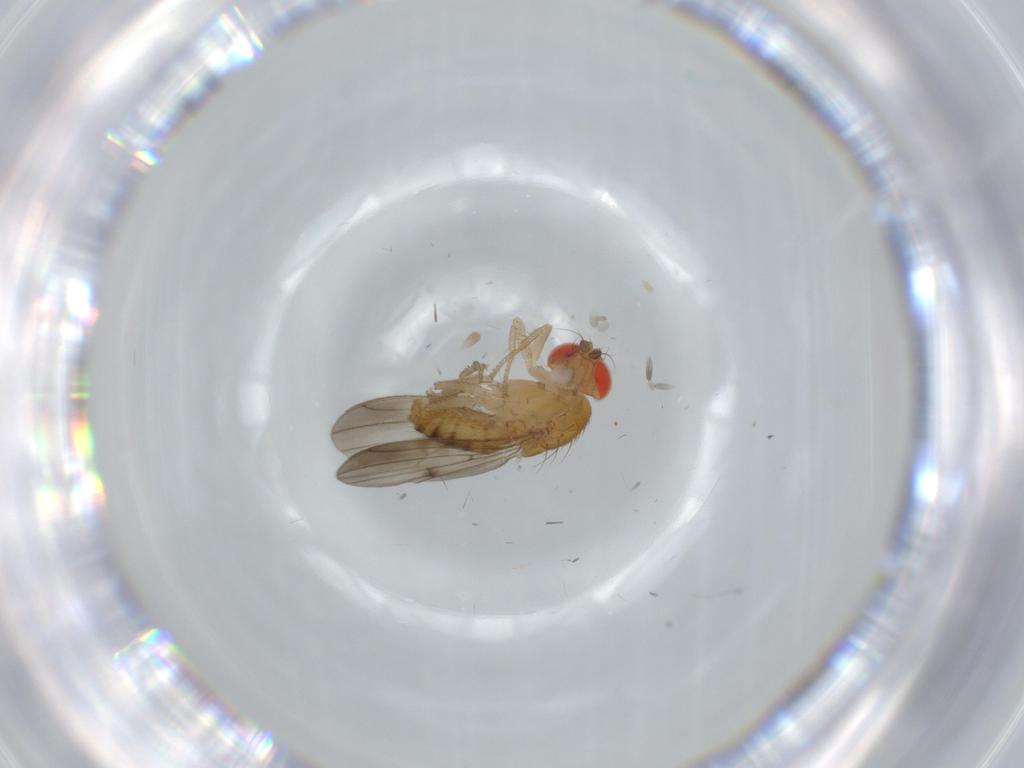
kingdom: Animalia
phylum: Arthropoda
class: Insecta
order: Diptera
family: Drosophilidae
